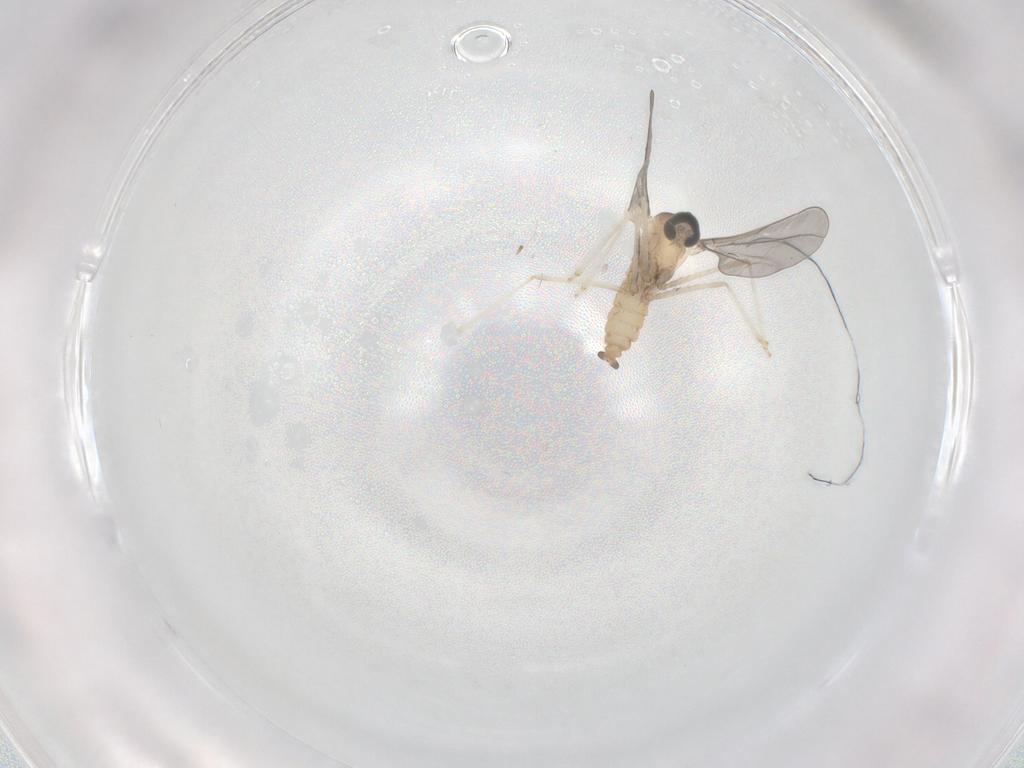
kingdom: Animalia
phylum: Arthropoda
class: Insecta
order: Diptera
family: Cecidomyiidae
